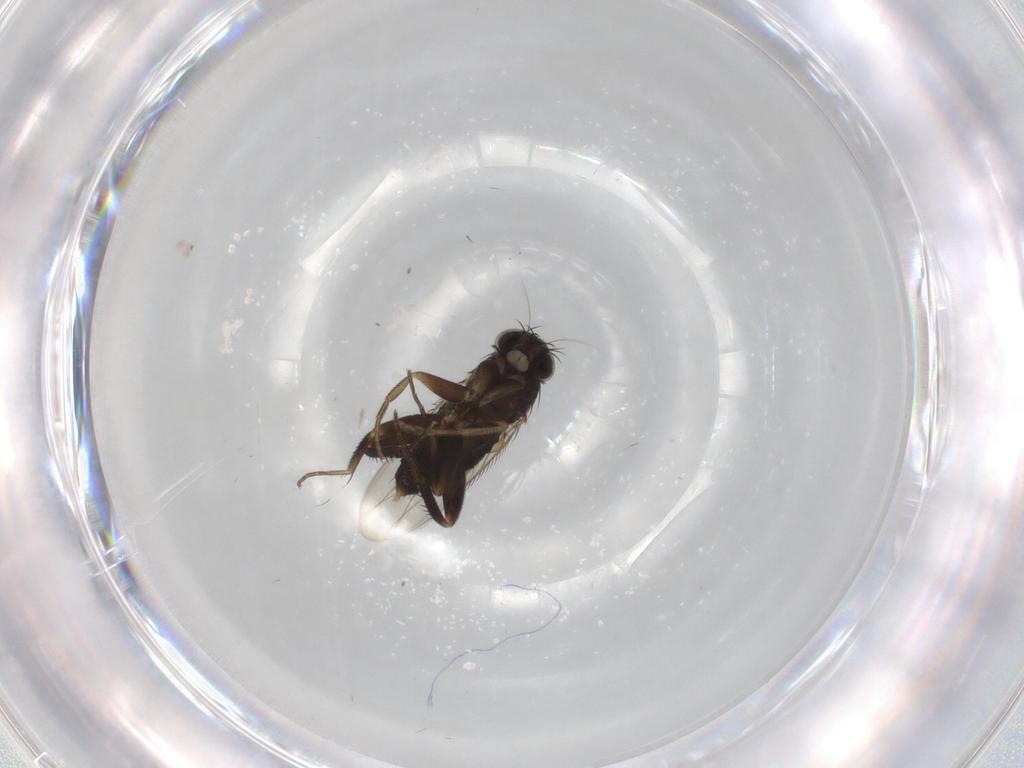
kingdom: Animalia
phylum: Arthropoda
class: Insecta
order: Diptera
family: Phoridae
